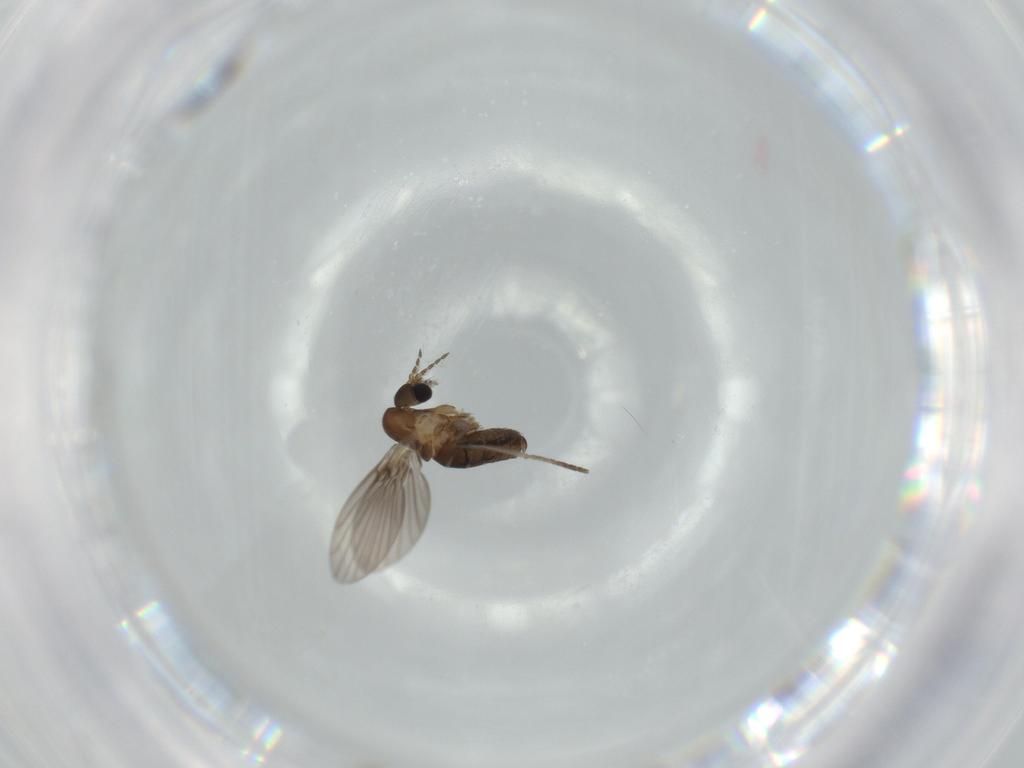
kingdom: Animalia
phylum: Arthropoda
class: Insecta
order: Diptera
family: Psychodidae
